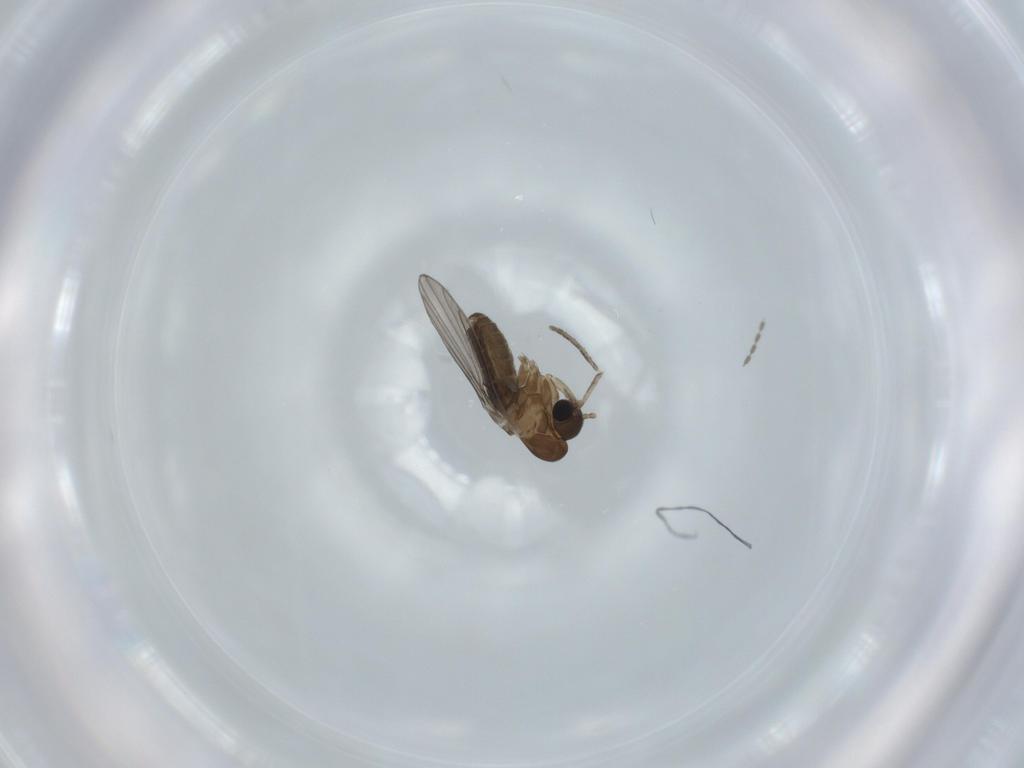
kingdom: Animalia
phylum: Arthropoda
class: Insecta
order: Diptera
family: Psychodidae
